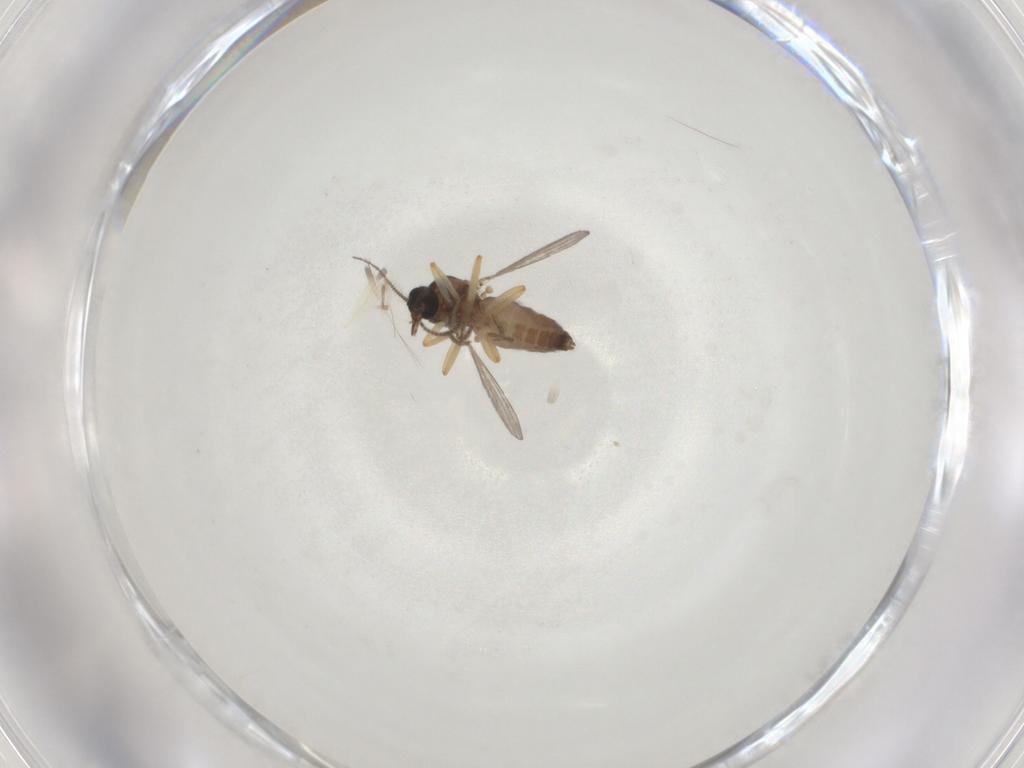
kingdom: Animalia
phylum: Arthropoda
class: Insecta
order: Diptera
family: Ceratopogonidae
